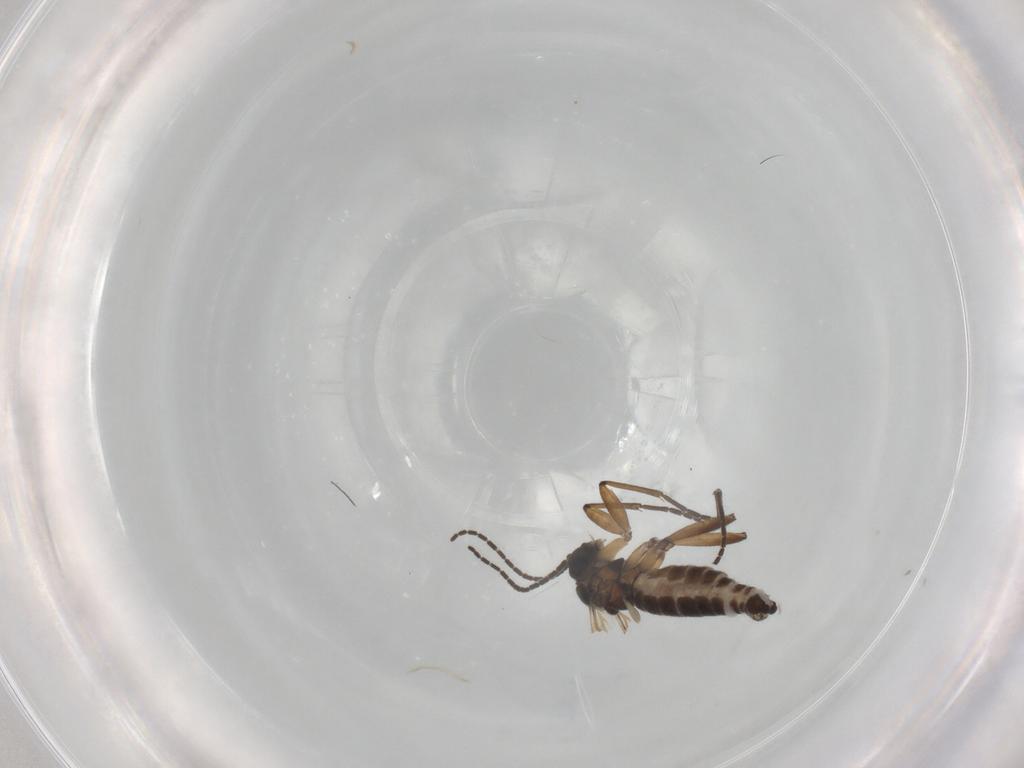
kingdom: Animalia
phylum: Arthropoda
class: Insecta
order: Diptera
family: Sciaridae
